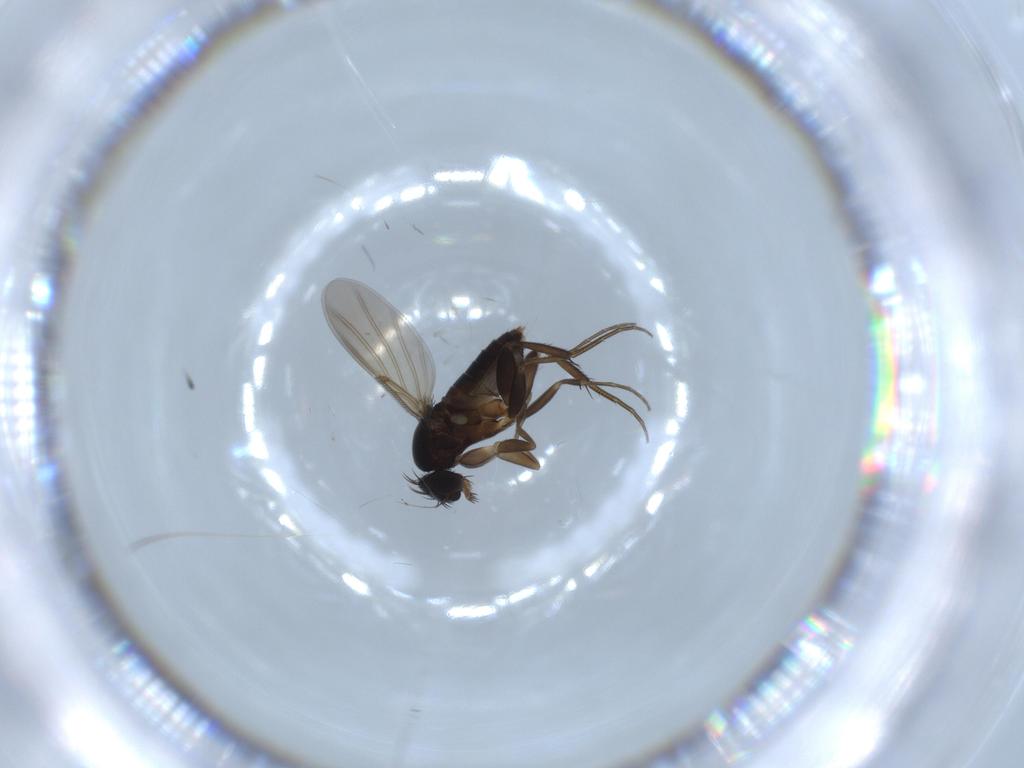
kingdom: Animalia
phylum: Arthropoda
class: Insecta
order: Diptera
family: Phoridae
